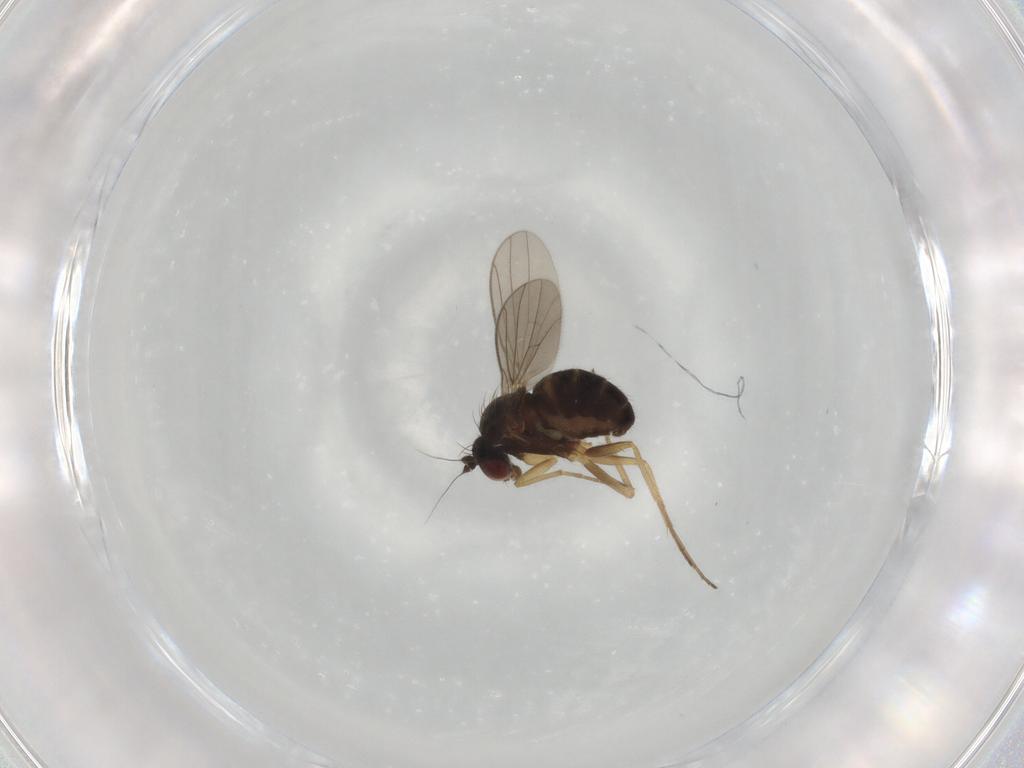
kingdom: Animalia
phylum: Arthropoda
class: Insecta
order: Diptera
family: Dolichopodidae
